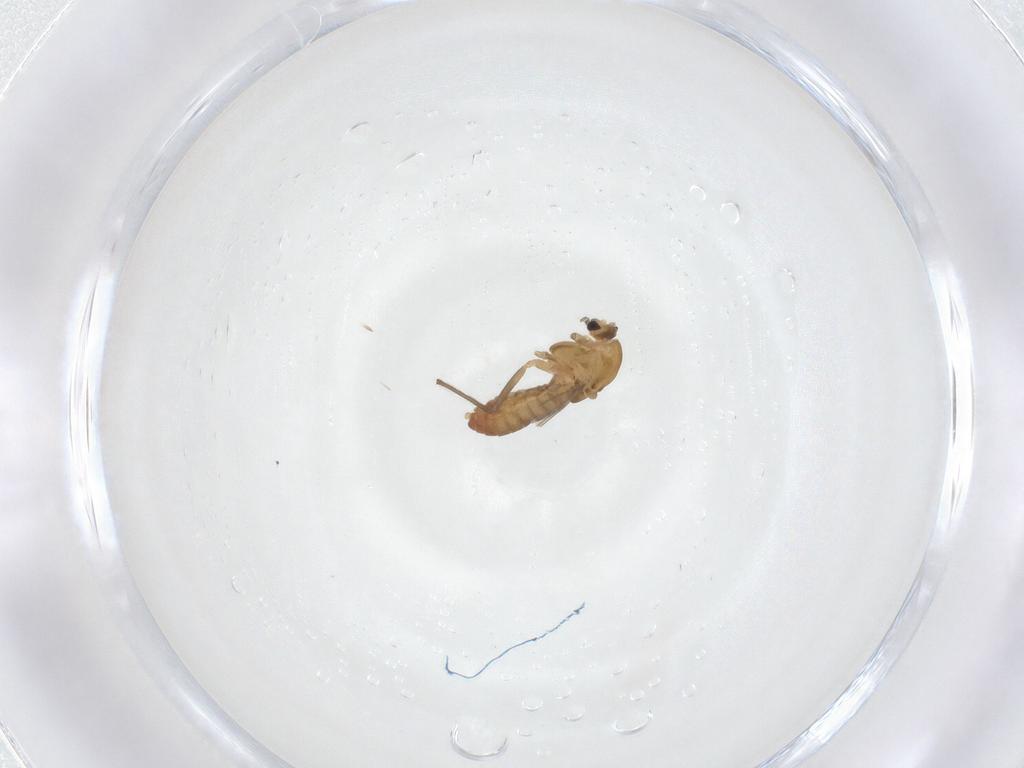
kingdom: Animalia
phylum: Arthropoda
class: Insecta
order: Diptera
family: Chironomidae
